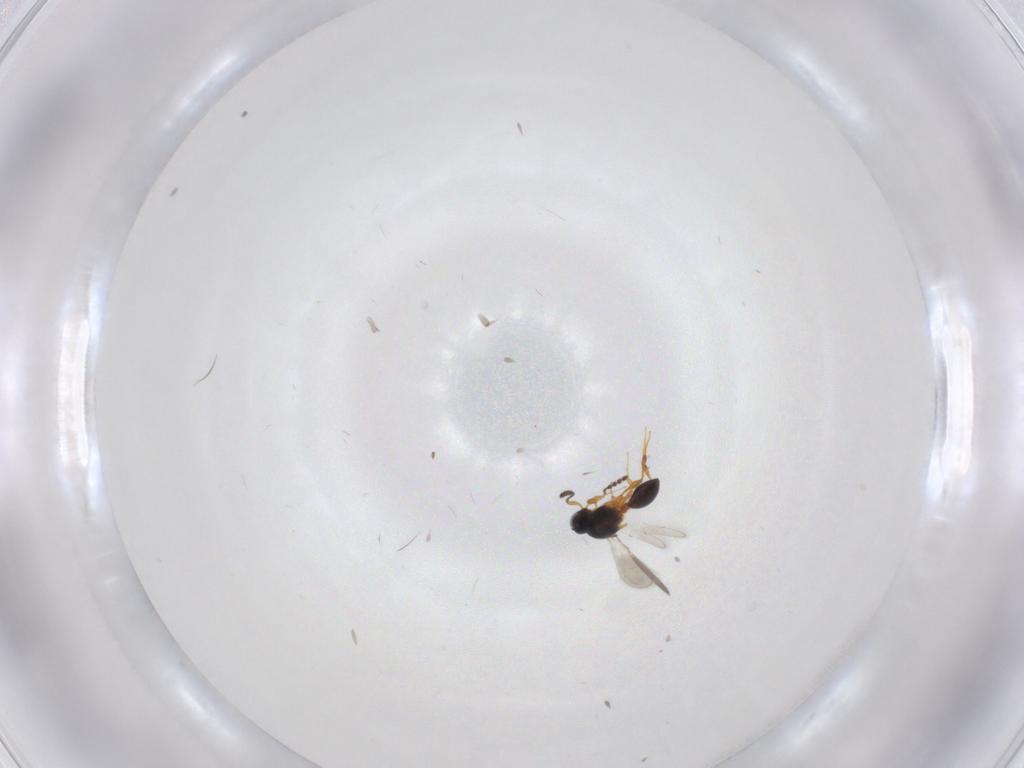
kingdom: Animalia
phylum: Arthropoda
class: Insecta
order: Hymenoptera
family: Platygastridae
